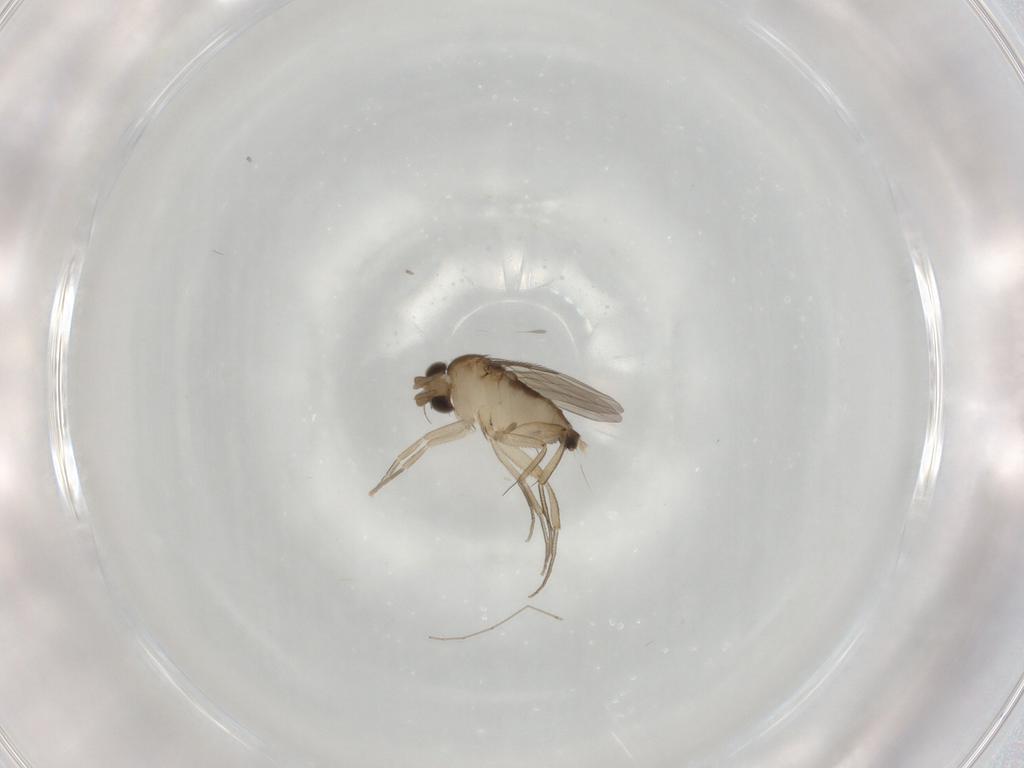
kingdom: Animalia
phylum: Arthropoda
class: Insecta
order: Diptera
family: Phoridae
